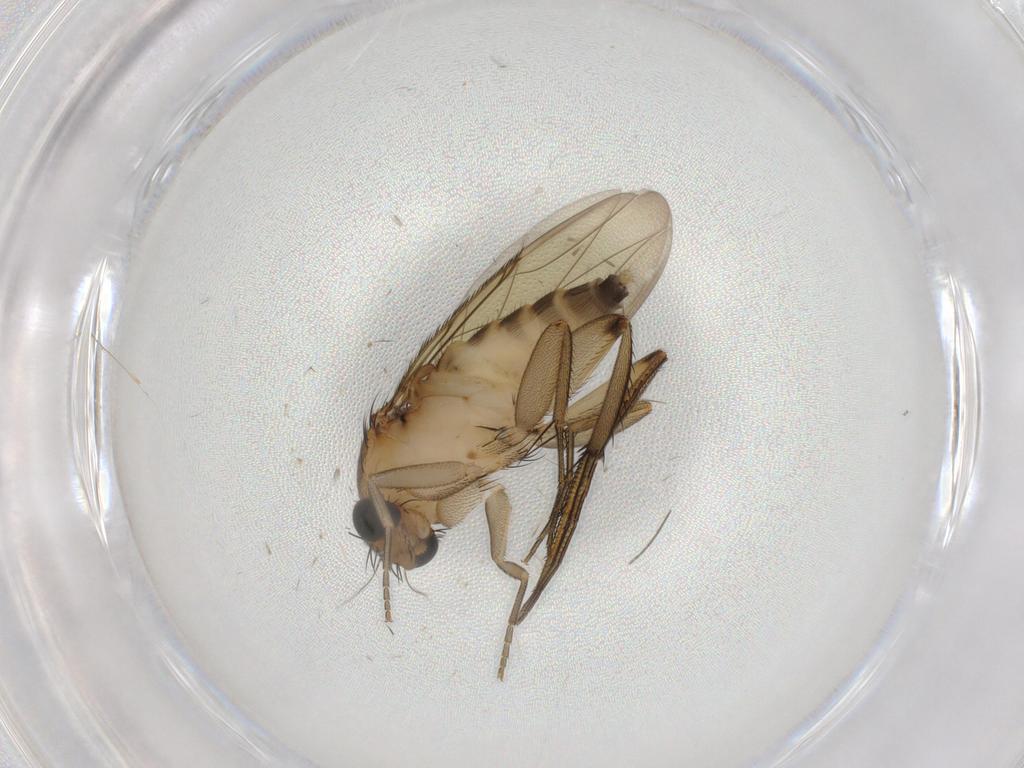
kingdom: Animalia
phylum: Arthropoda
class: Insecta
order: Diptera
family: Phoridae
